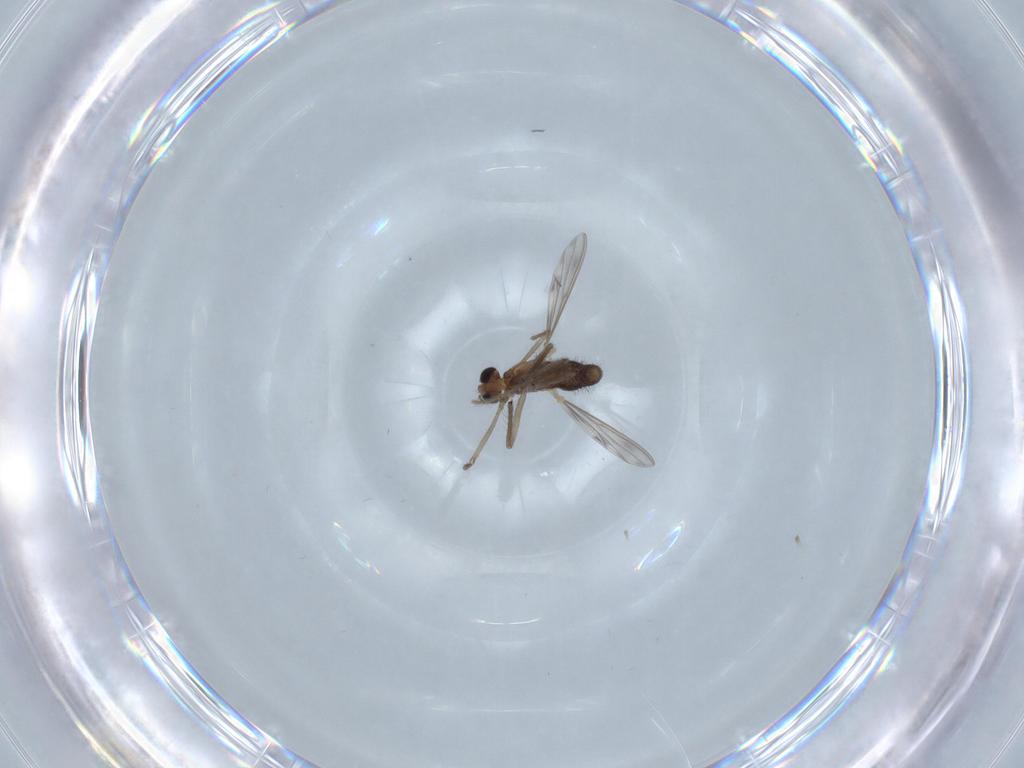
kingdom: Animalia
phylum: Arthropoda
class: Insecta
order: Diptera
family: Chironomidae
